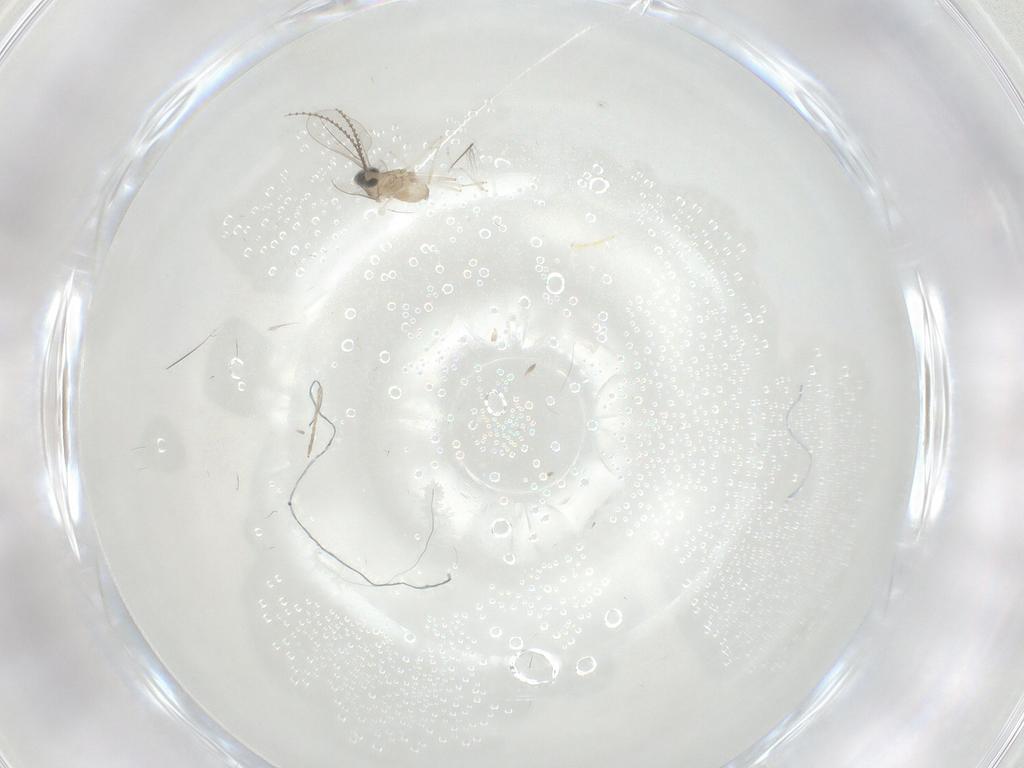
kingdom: Animalia
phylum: Arthropoda
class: Insecta
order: Diptera
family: Chironomidae
